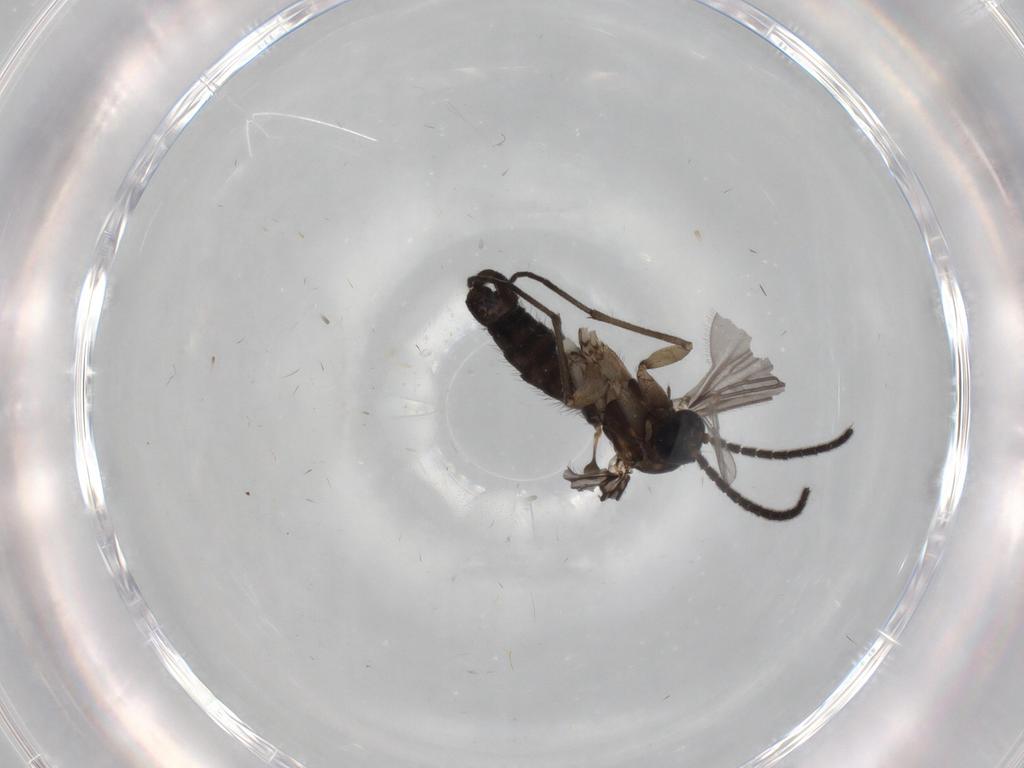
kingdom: Animalia
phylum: Arthropoda
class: Insecta
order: Diptera
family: Sciaridae
